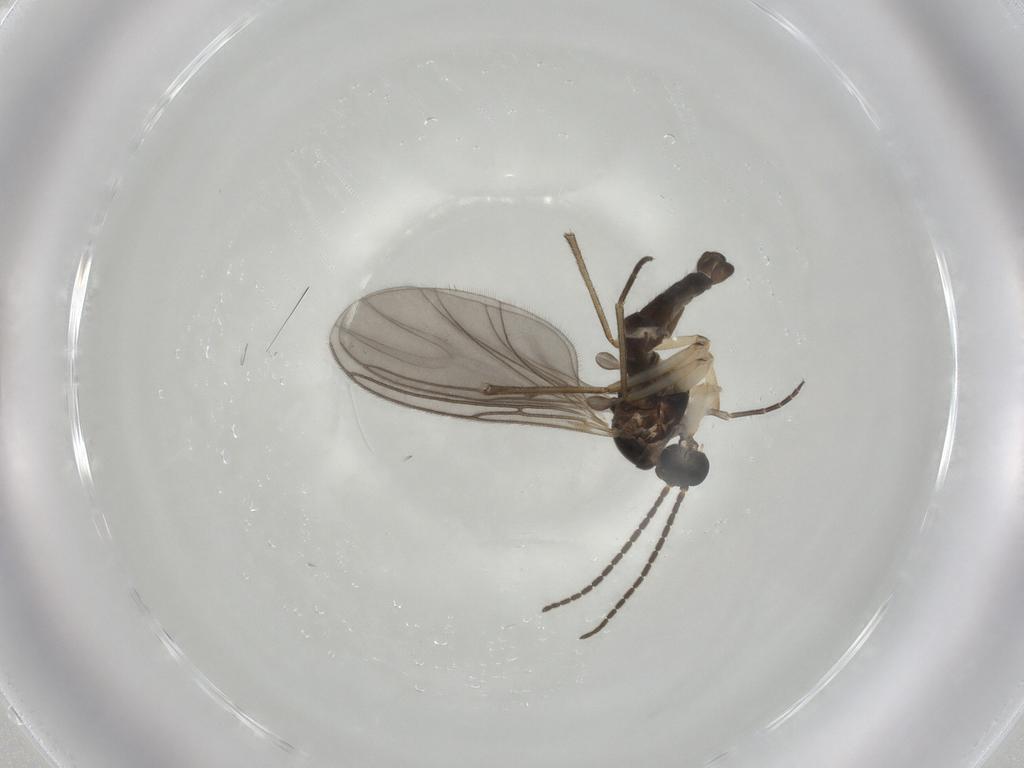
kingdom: Animalia
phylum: Arthropoda
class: Insecta
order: Diptera
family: Sciaridae
